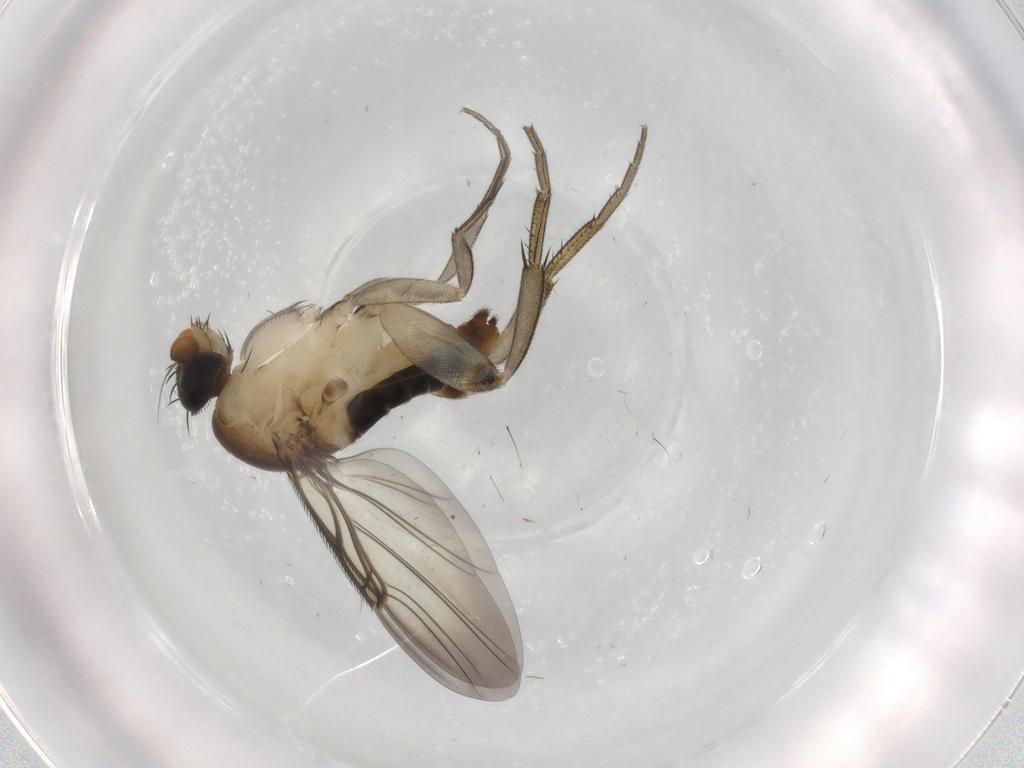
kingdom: Animalia
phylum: Arthropoda
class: Insecta
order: Diptera
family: Phoridae
